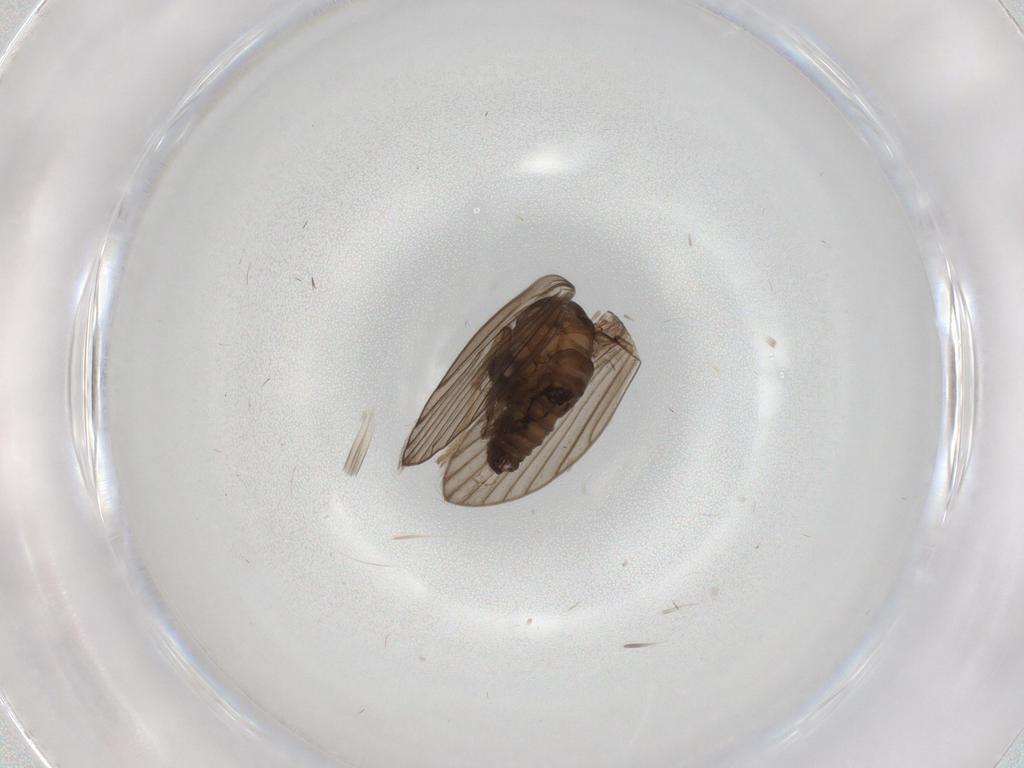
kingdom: Animalia
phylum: Arthropoda
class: Insecta
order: Diptera
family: Psychodidae
